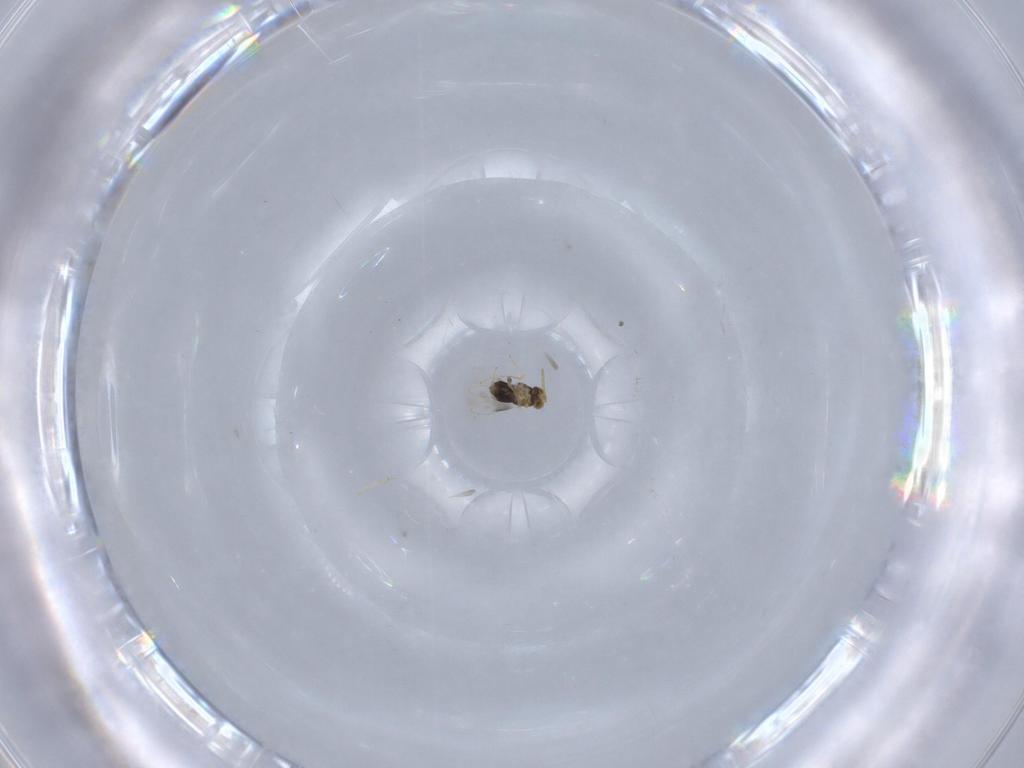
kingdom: Animalia
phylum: Arthropoda
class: Insecta
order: Hymenoptera
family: Aphelinidae
